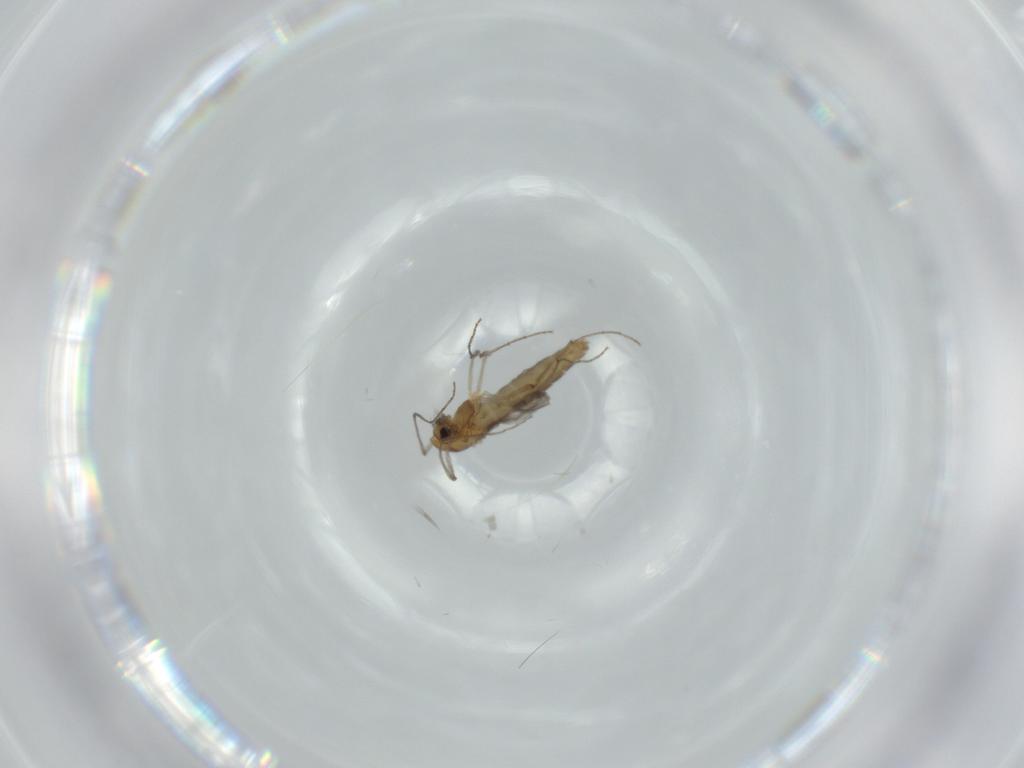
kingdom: Animalia
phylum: Arthropoda
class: Insecta
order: Diptera
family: Chironomidae
